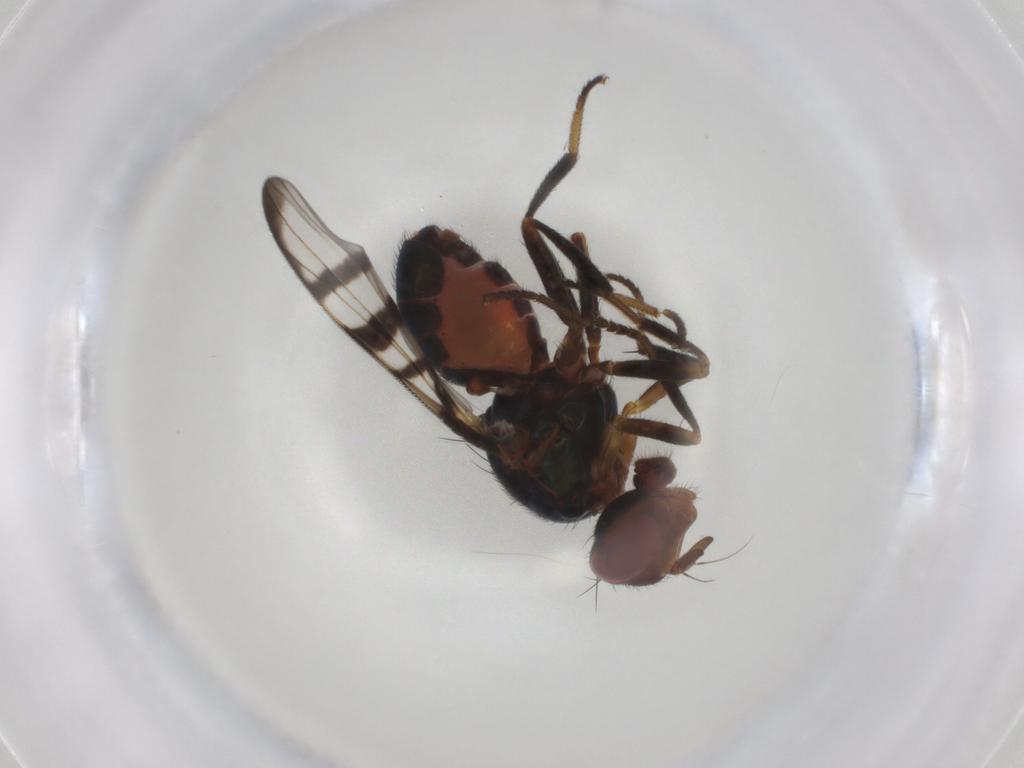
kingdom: Animalia
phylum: Arthropoda
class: Insecta
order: Diptera
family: Platystomatidae
